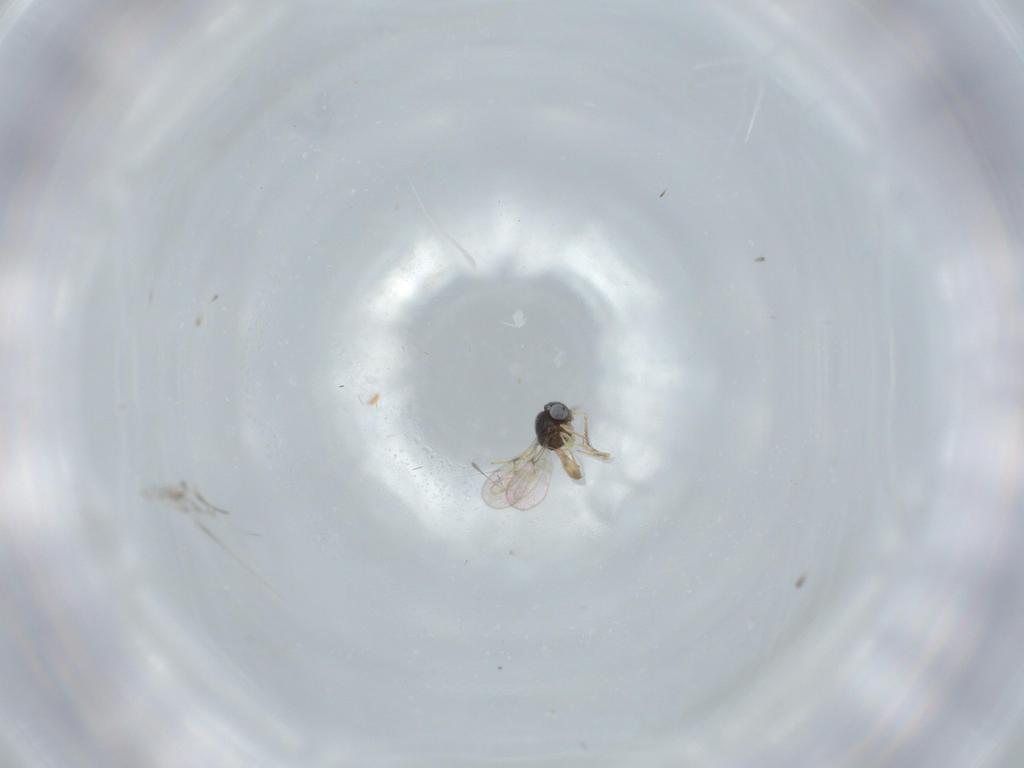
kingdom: Animalia
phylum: Arthropoda
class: Insecta
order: Hymenoptera
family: Scelionidae
